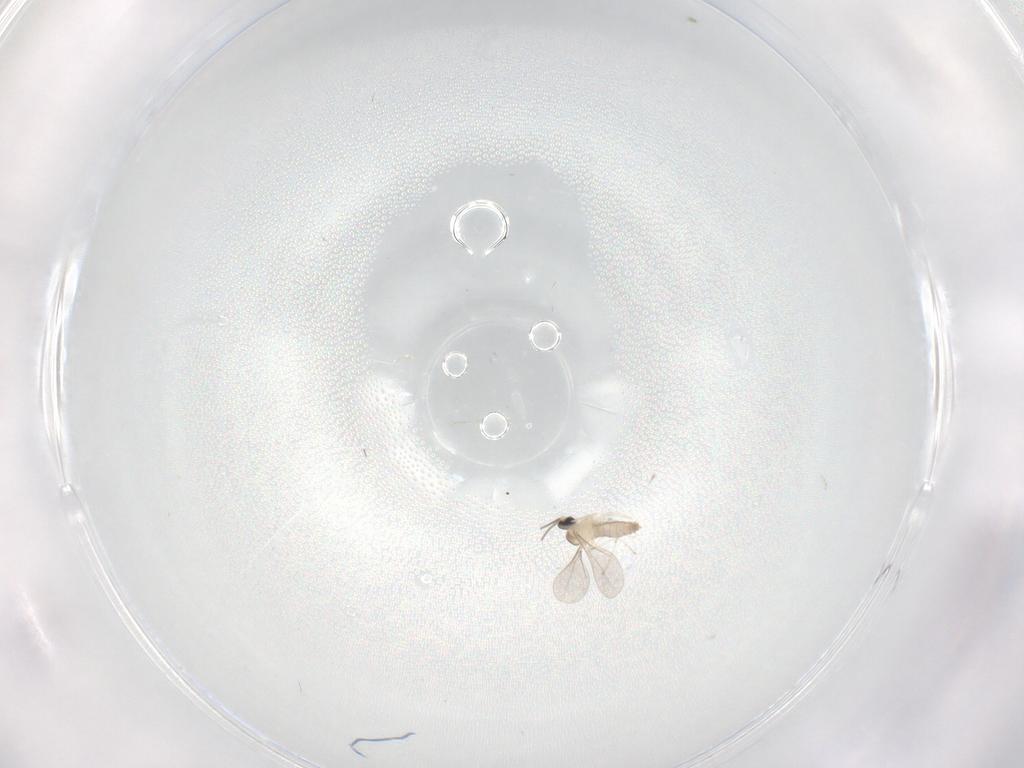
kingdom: Animalia
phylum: Arthropoda
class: Insecta
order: Diptera
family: Cecidomyiidae
